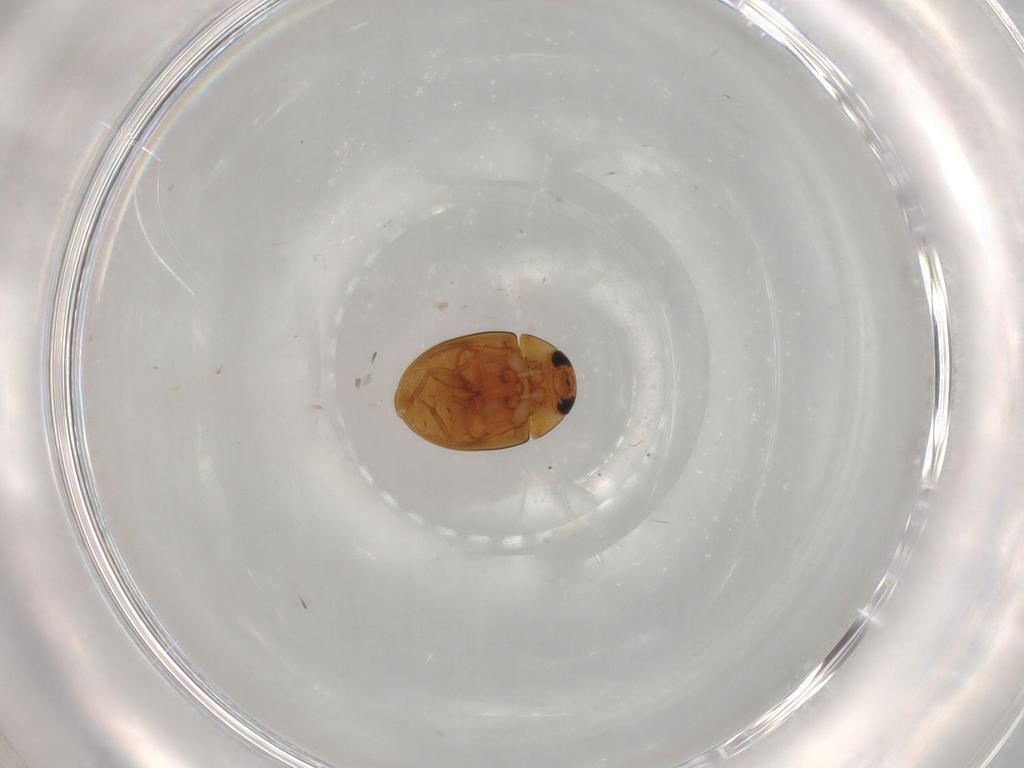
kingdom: Animalia
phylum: Arthropoda
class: Insecta
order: Coleoptera
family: Phalacridae
